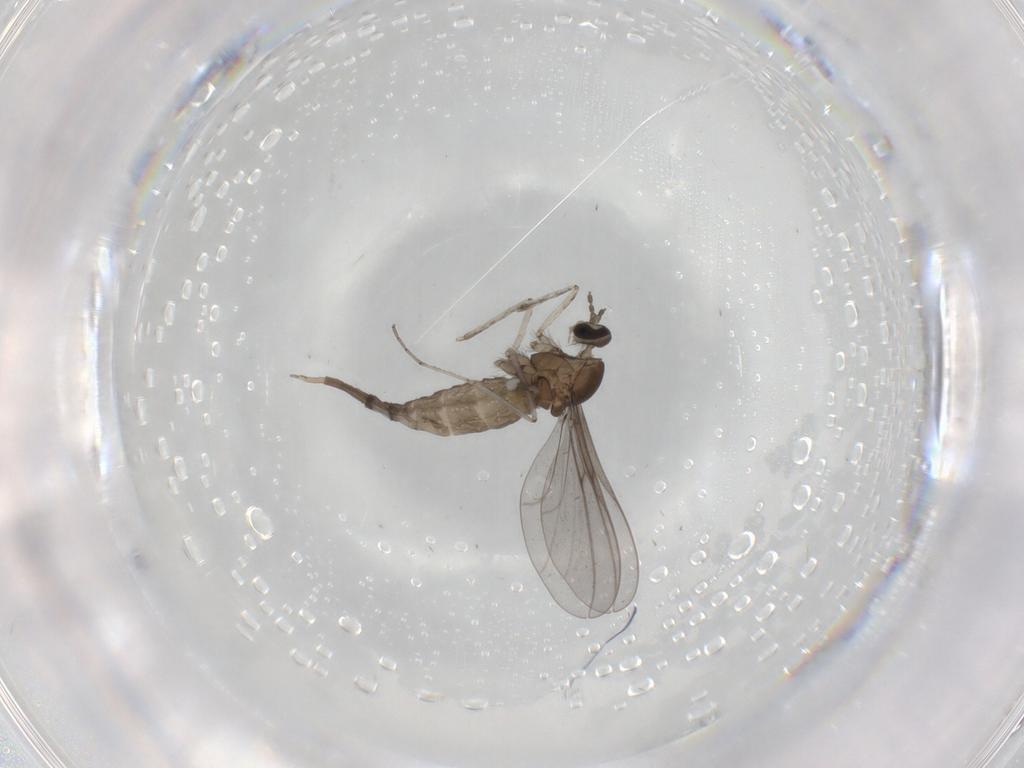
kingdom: Animalia
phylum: Arthropoda
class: Insecta
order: Diptera
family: Cecidomyiidae
